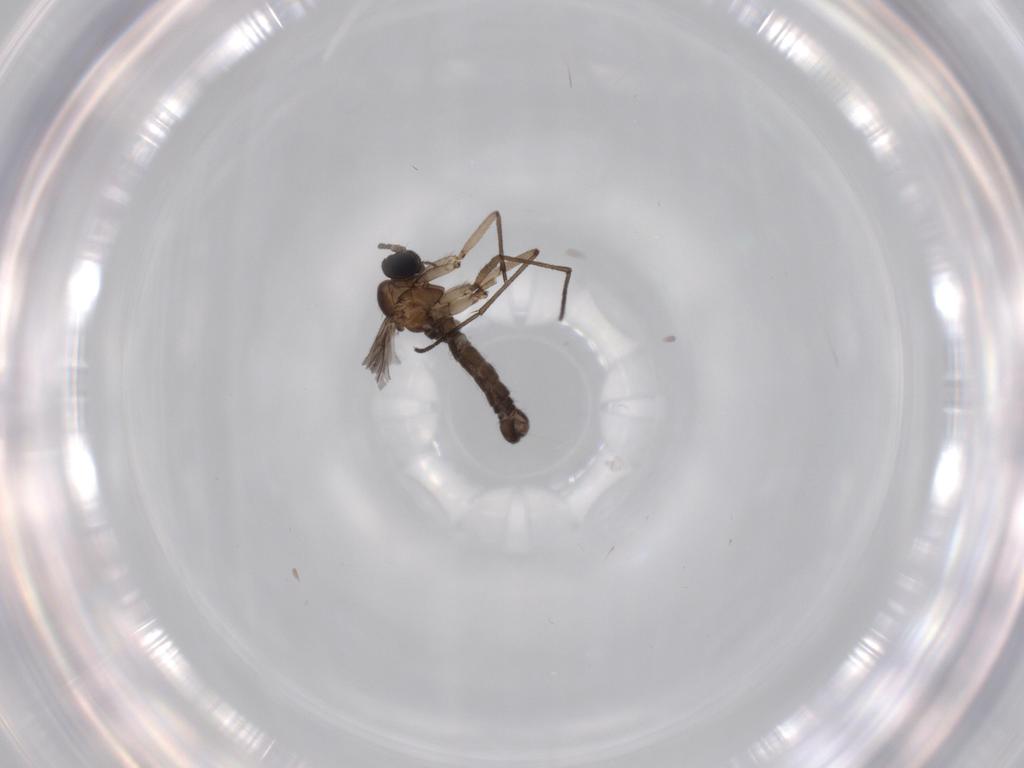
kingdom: Animalia
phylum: Arthropoda
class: Insecta
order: Diptera
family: Sciaridae
